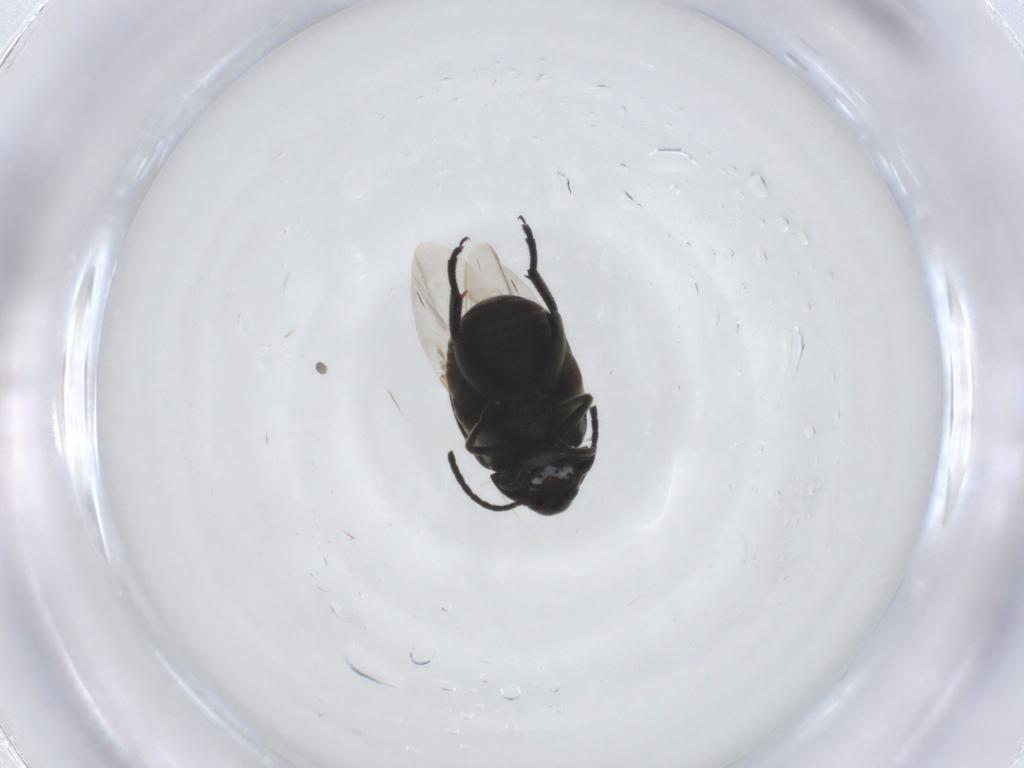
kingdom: Animalia
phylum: Arthropoda
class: Insecta
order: Coleoptera
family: Chrysomelidae
